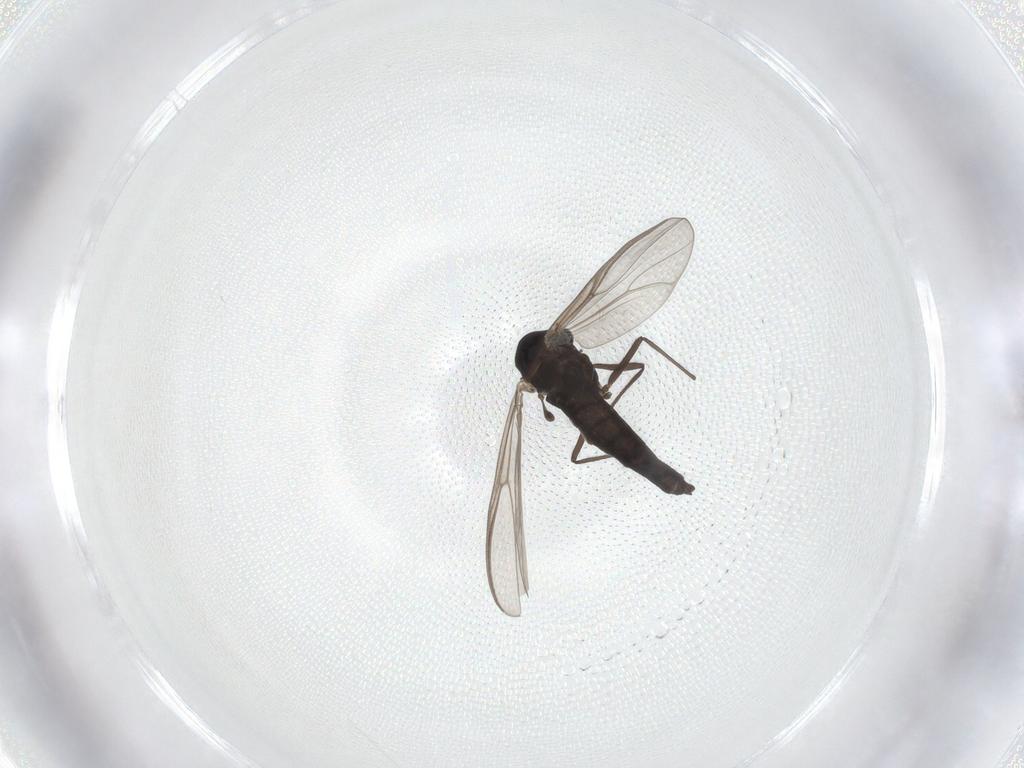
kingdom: Animalia
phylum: Arthropoda
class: Insecta
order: Diptera
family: Chironomidae
